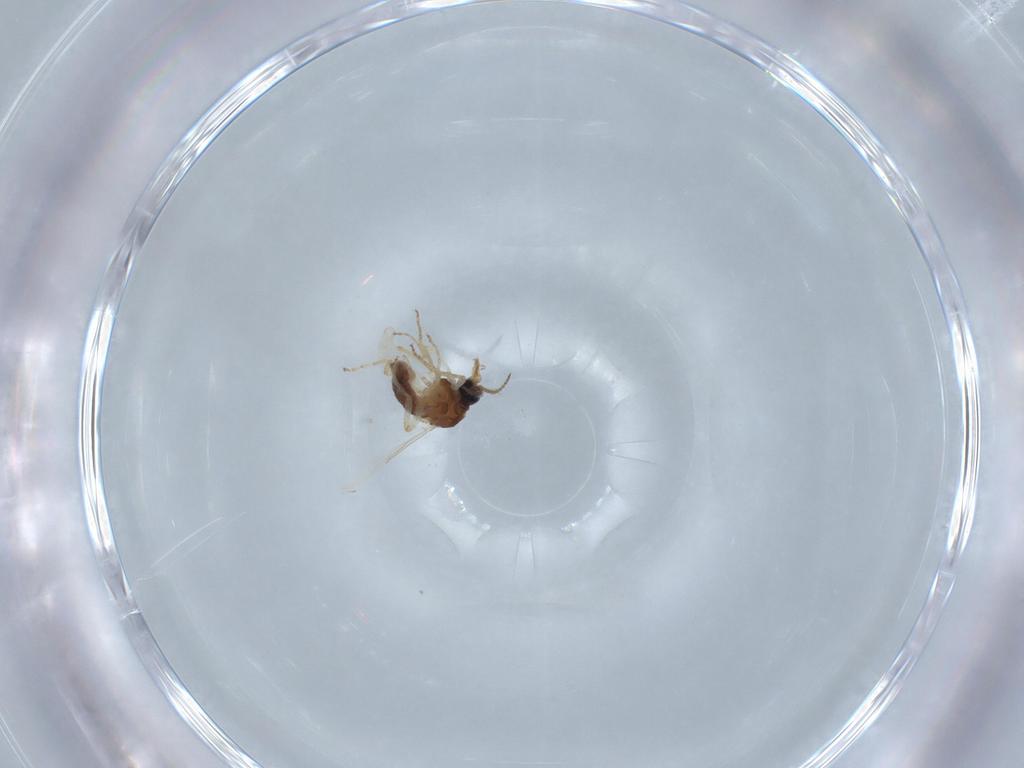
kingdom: Animalia
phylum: Arthropoda
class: Insecta
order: Diptera
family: Ceratopogonidae
